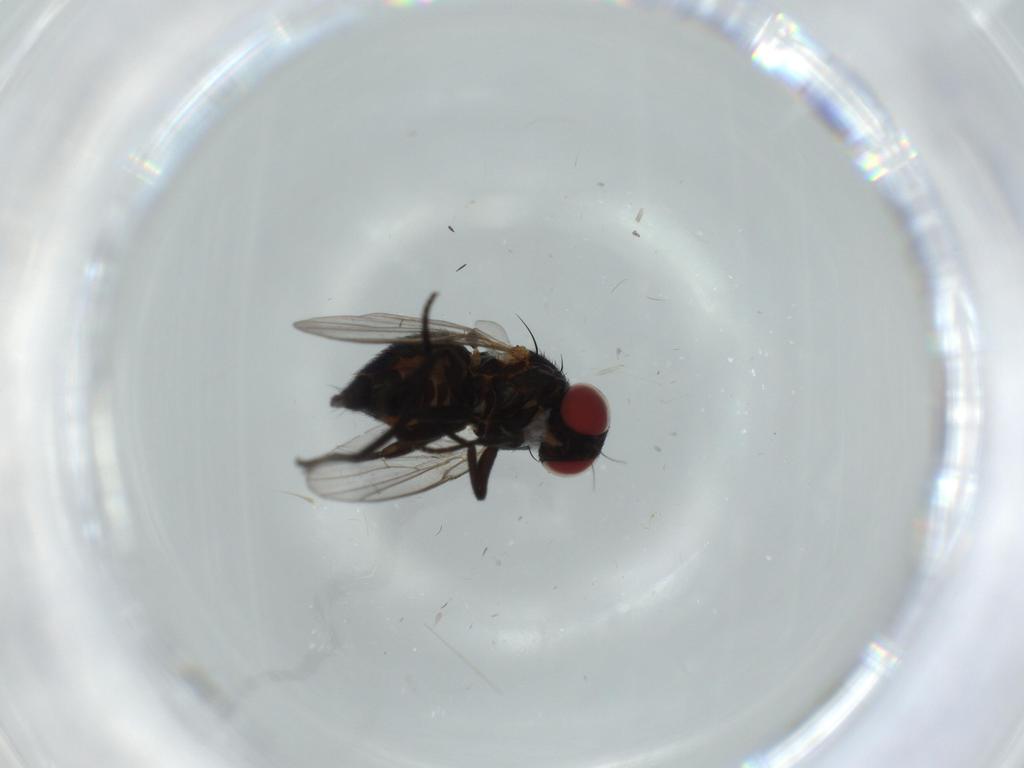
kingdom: Animalia
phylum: Arthropoda
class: Insecta
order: Diptera
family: Agromyzidae
